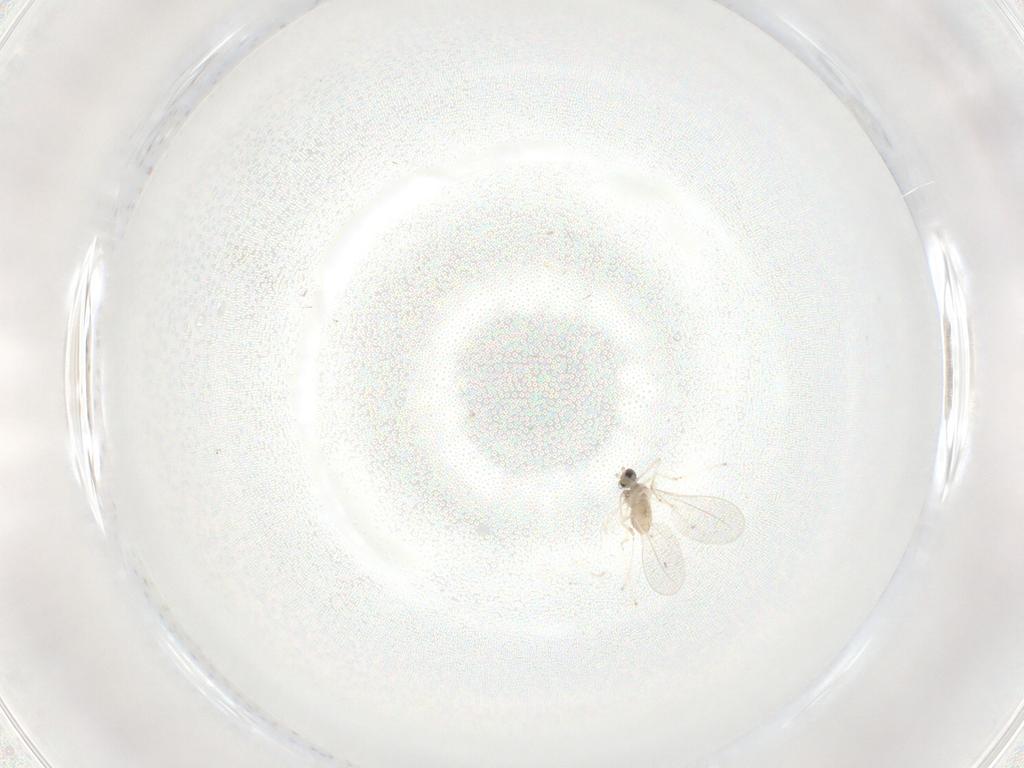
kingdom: Animalia
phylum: Arthropoda
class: Insecta
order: Diptera
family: Cecidomyiidae
